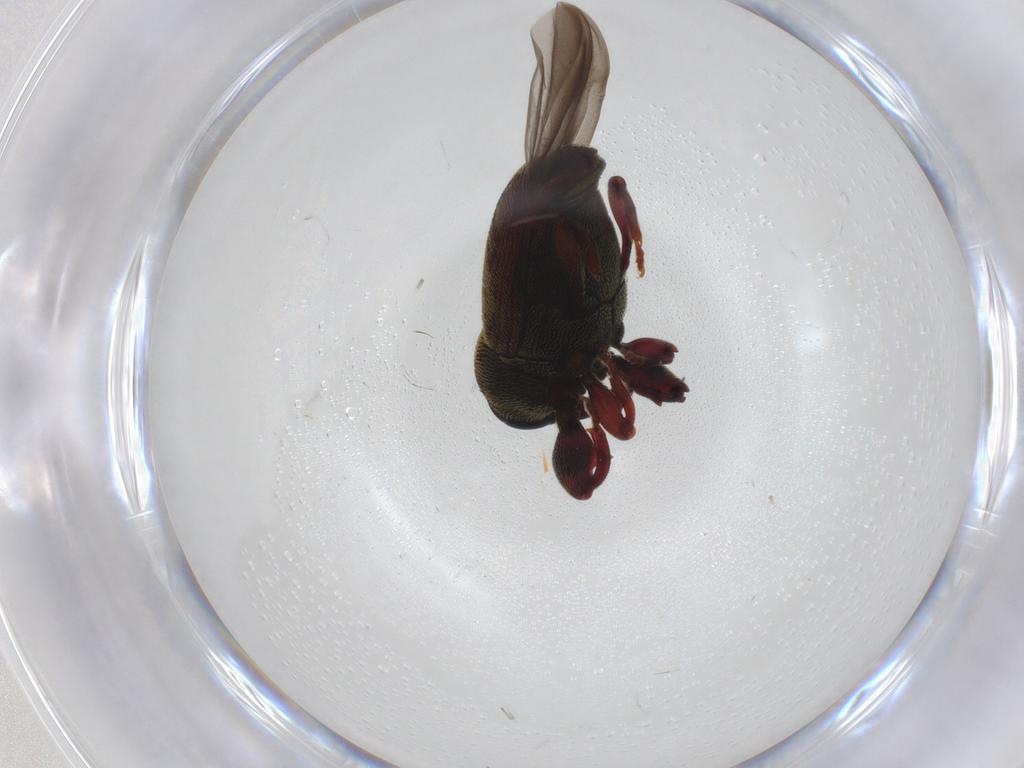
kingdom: Animalia
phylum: Arthropoda
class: Insecta
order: Coleoptera
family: Curculionidae
